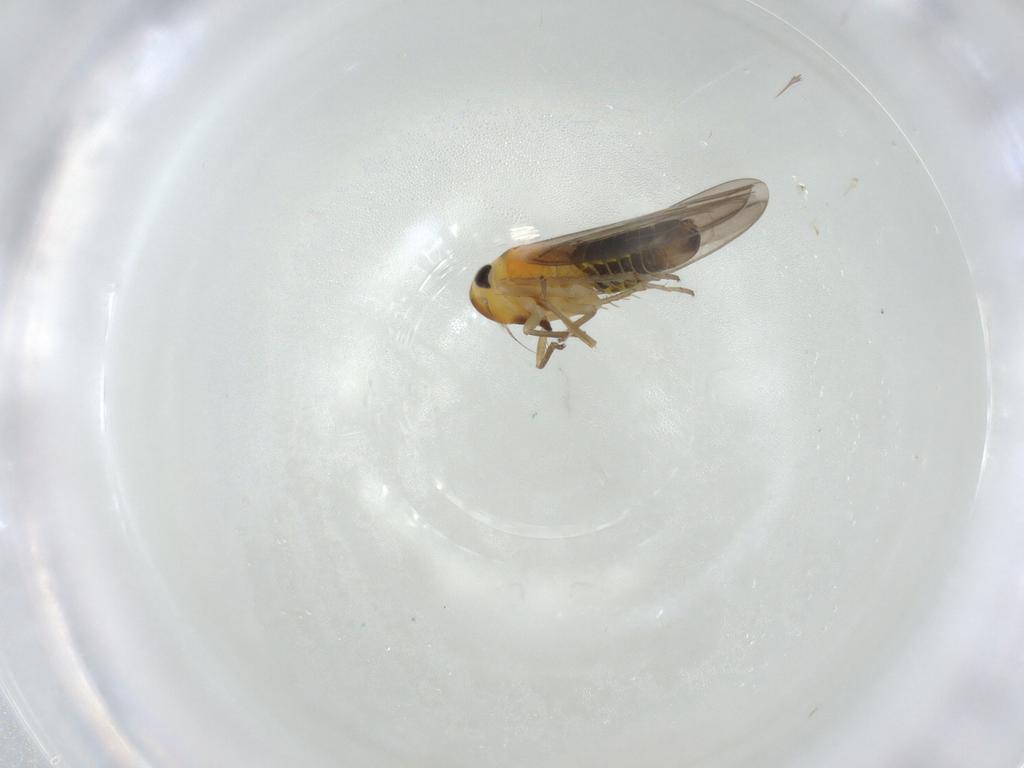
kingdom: Animalia
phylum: Arthropoda
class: Insecta
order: Hemiptera
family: Cicadellidae
